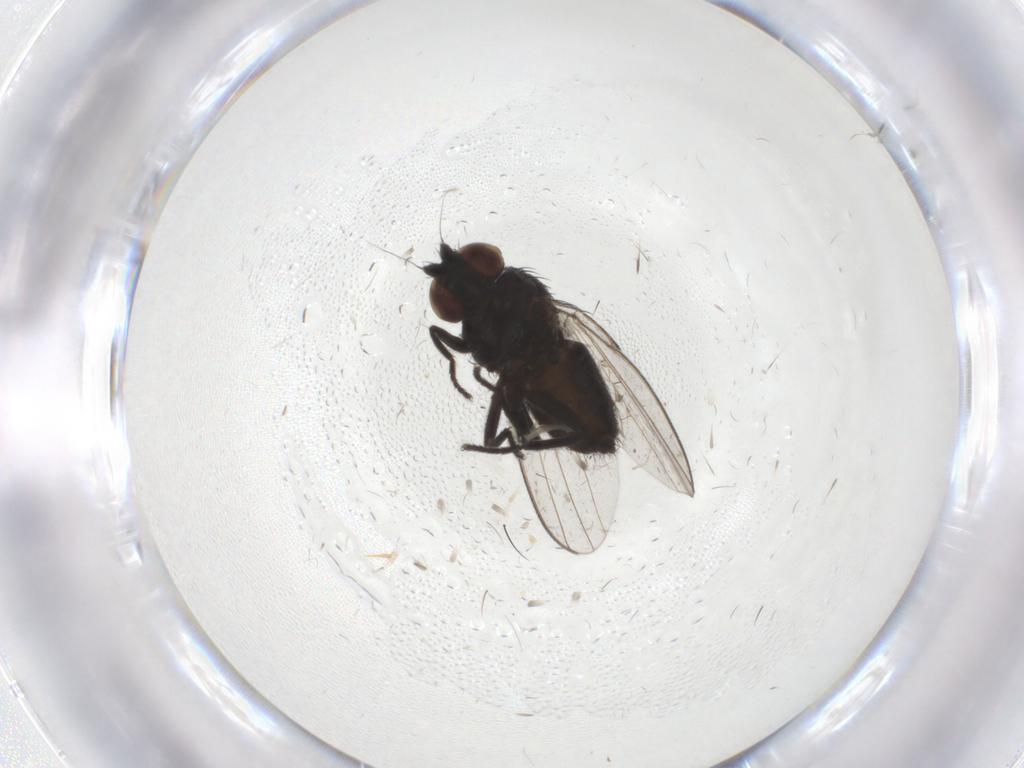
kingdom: Animalia
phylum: Arthropoda
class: Insecta
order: Diptera
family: Milichiidae
